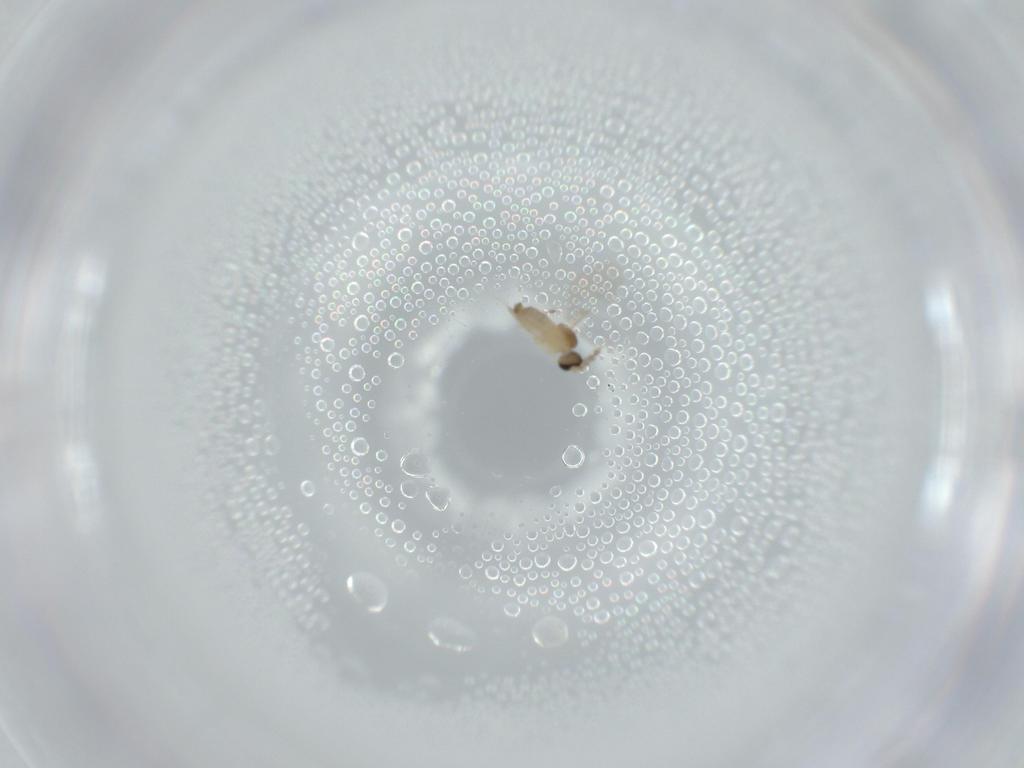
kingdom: Animalia
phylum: Arthropoda
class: Insecta
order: Diptera
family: Cecidomyiidae
